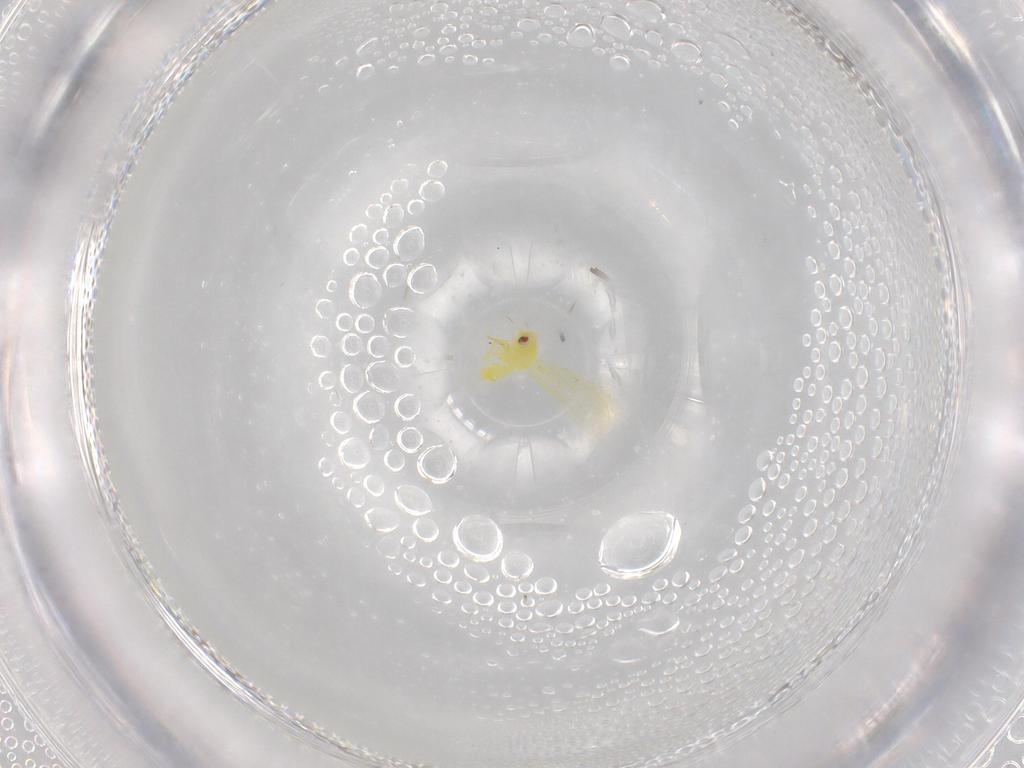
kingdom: Animalia
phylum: Arthropoda
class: Insecta
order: Hemiptera
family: Aleyrodidae
